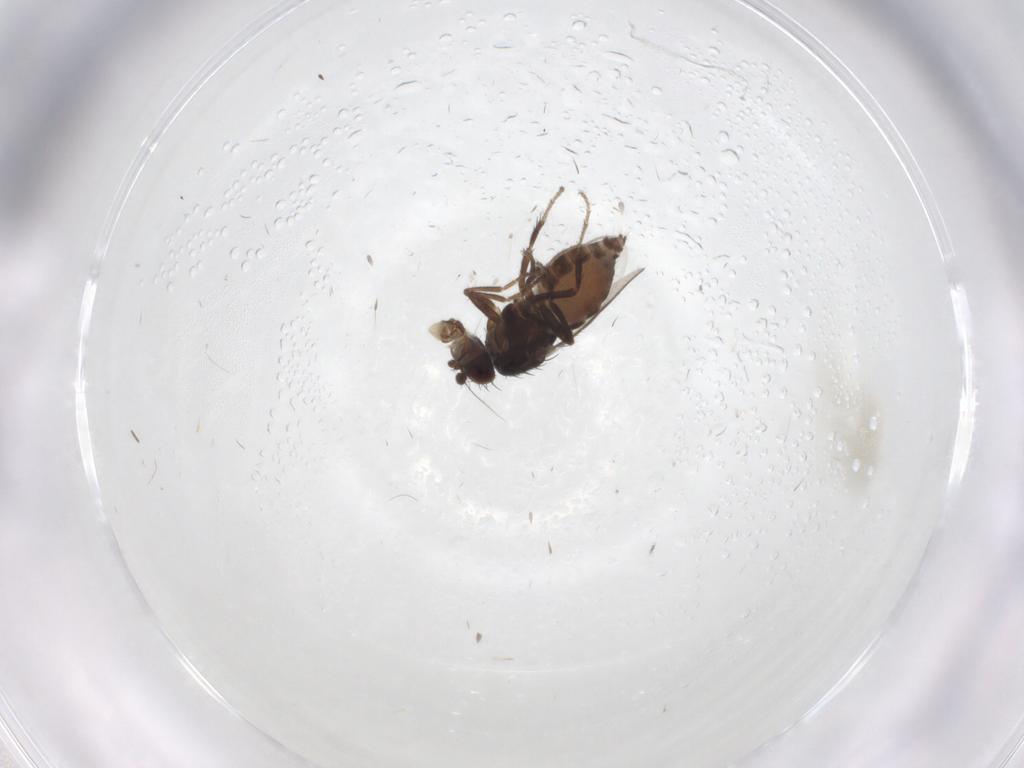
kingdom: Animalia
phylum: Arthropoda
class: Insecta
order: Diptera
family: Sphaeroceridae
